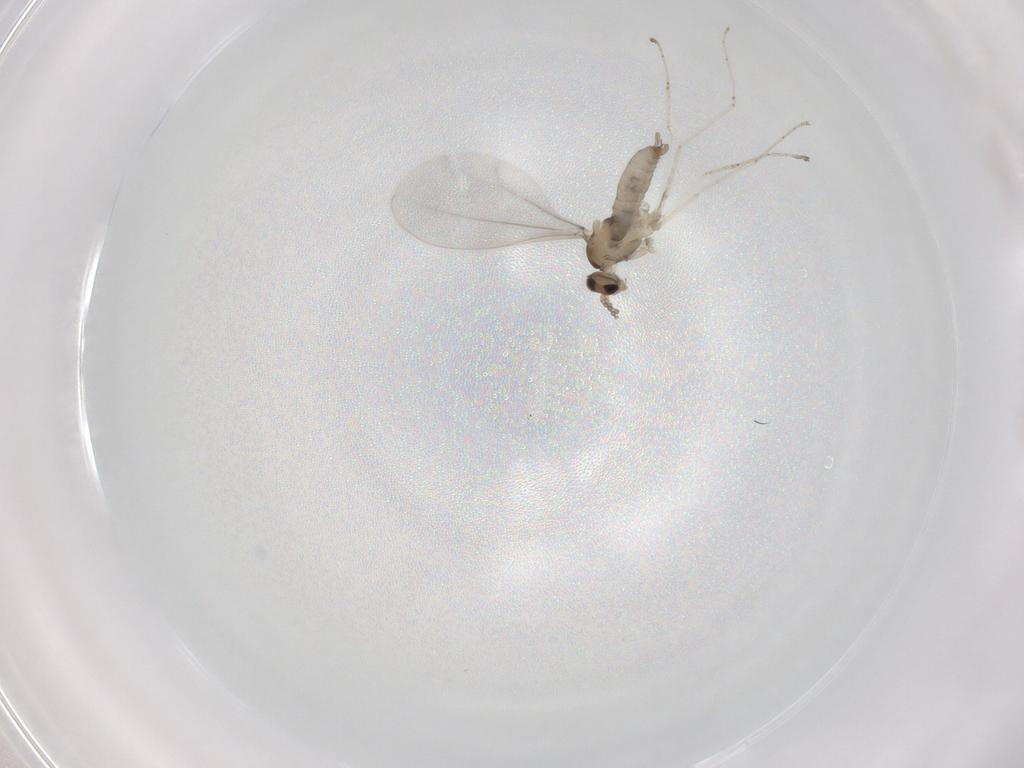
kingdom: Animalia
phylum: Arthropoda
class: Insecta
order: Diptera
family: Cecidomyiidae
